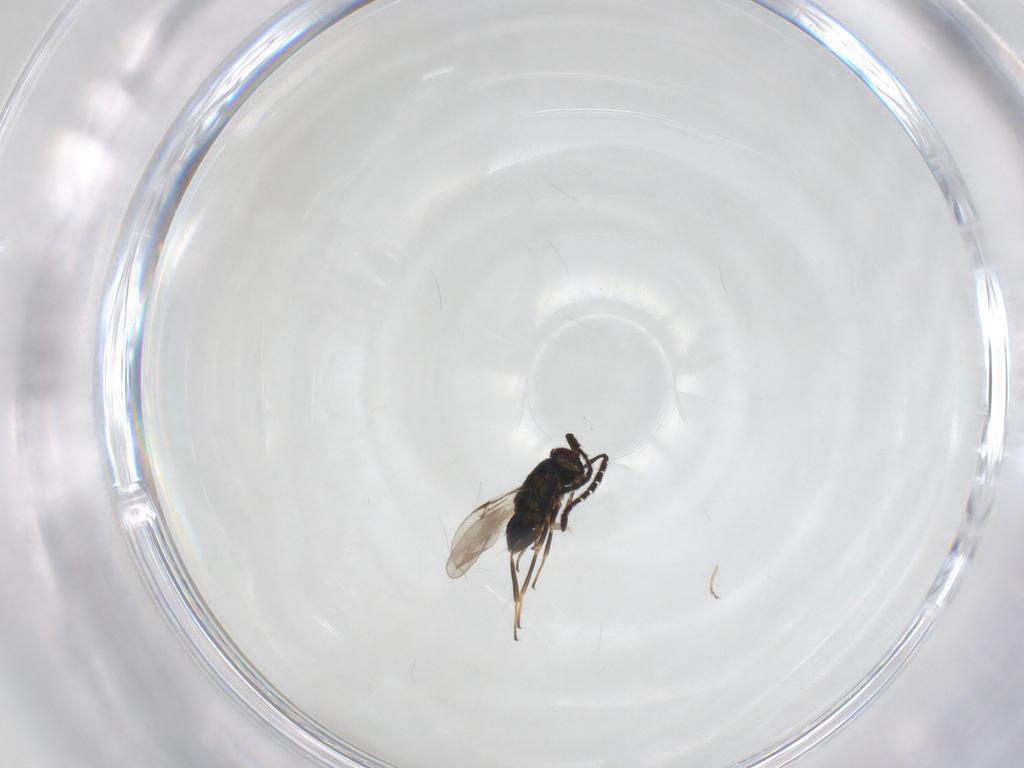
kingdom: Animalia
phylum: Arthropoda
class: Insecta
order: Hymenoptera
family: Encyrtidae
